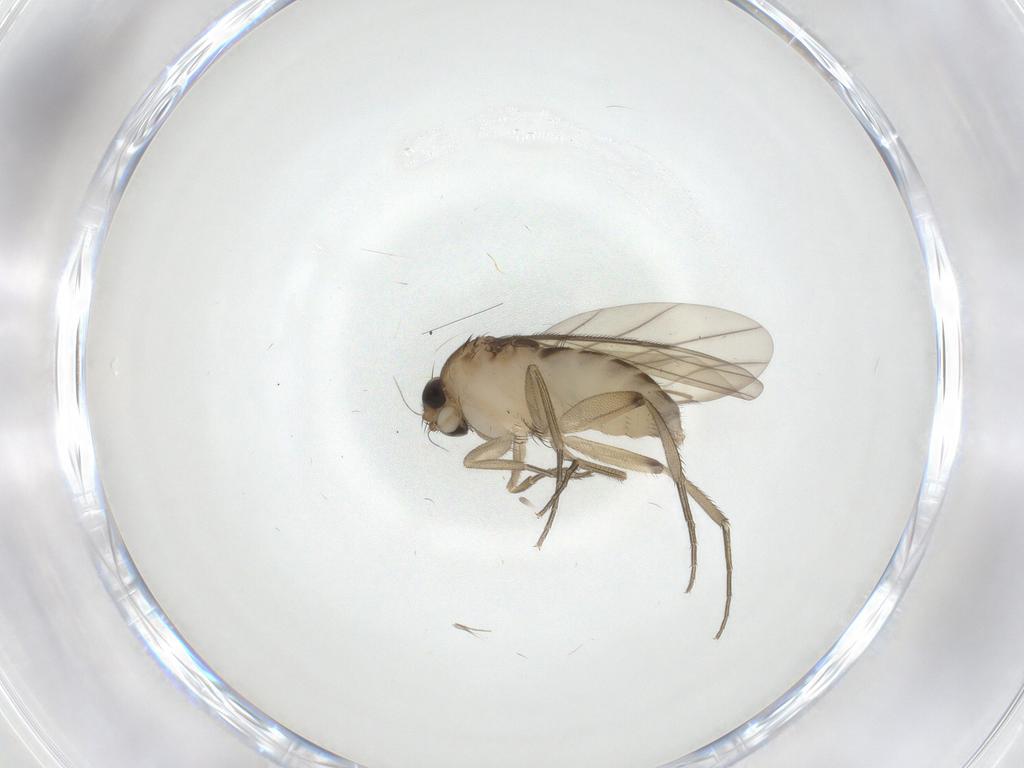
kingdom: Animalia
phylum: Arthropoda
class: Insecta
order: Diptera
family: Phoridae
